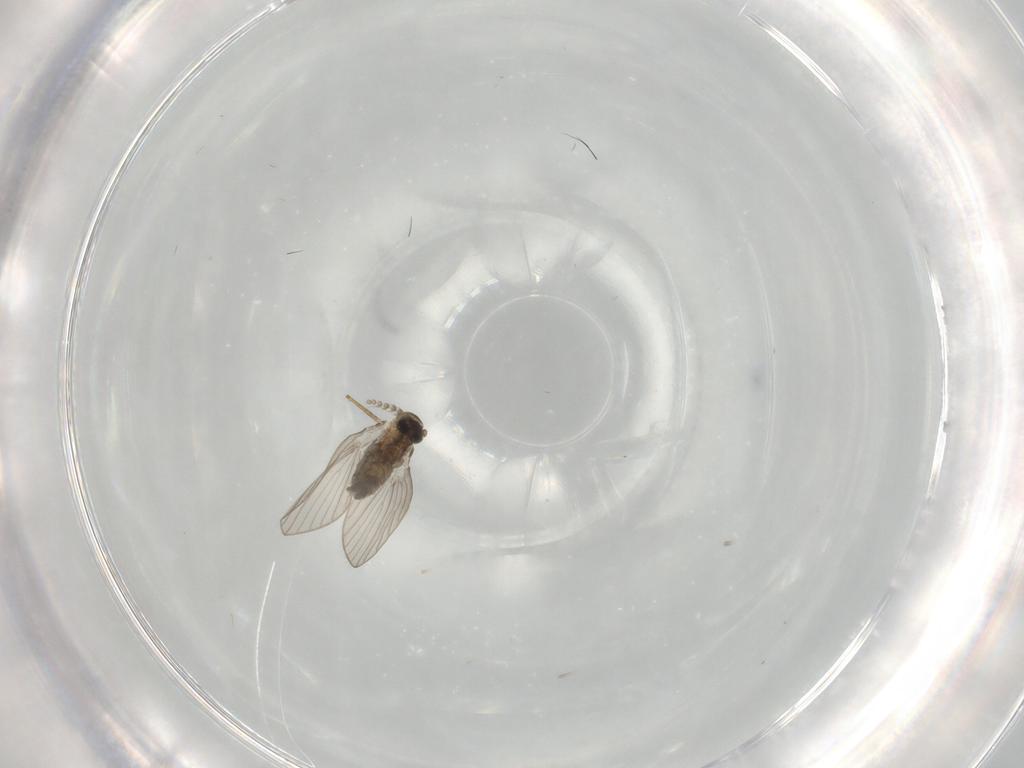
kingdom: Animalia
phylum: Arthropoda
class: Insecta
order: Diptera
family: Psychodidae
